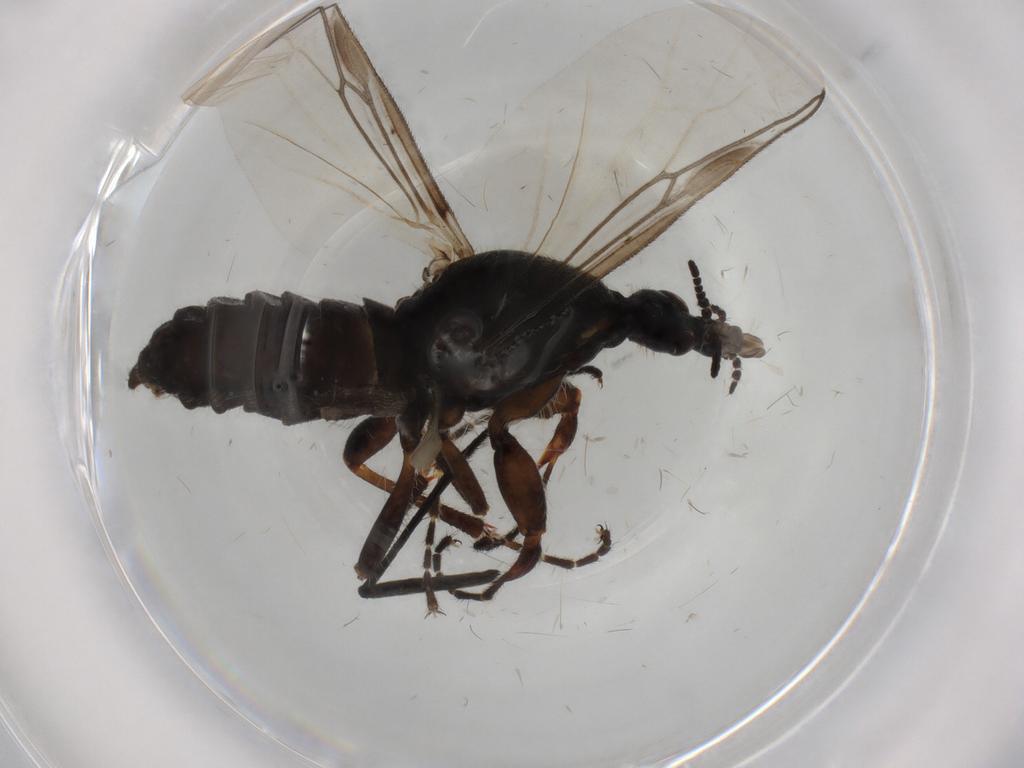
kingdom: Animalia
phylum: Arthropoda
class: Insecta
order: Diptera
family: Bibionidae
